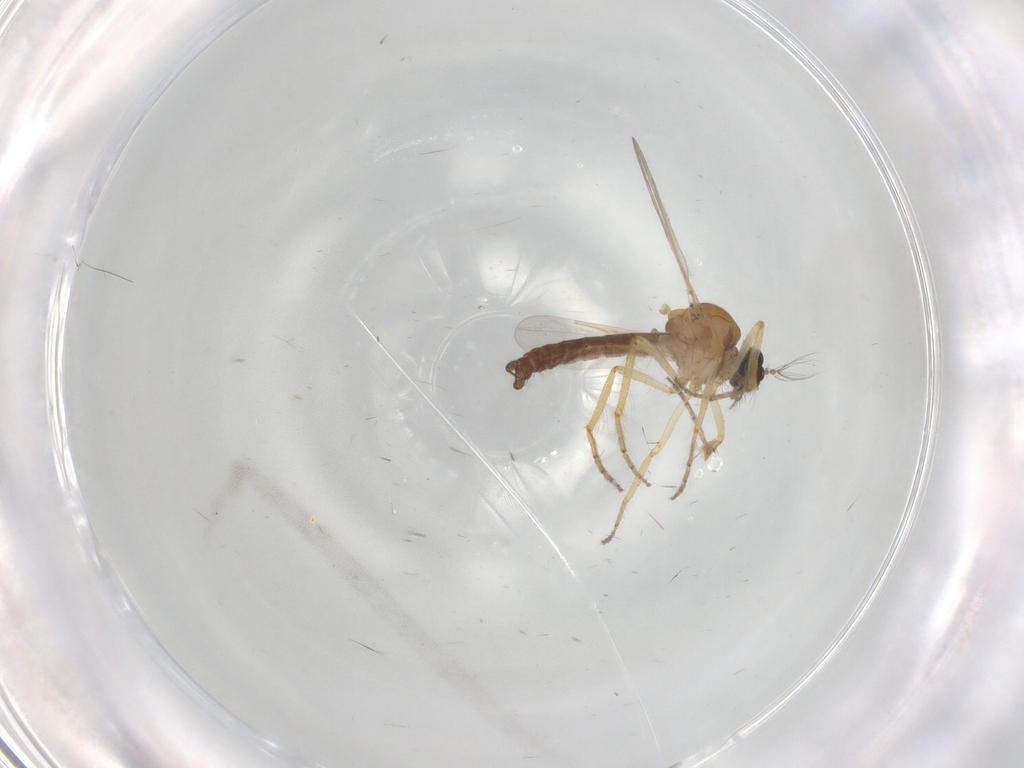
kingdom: Animalia
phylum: Arthropoda
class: Insecta
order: Diptera
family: Ceratopogonidae
